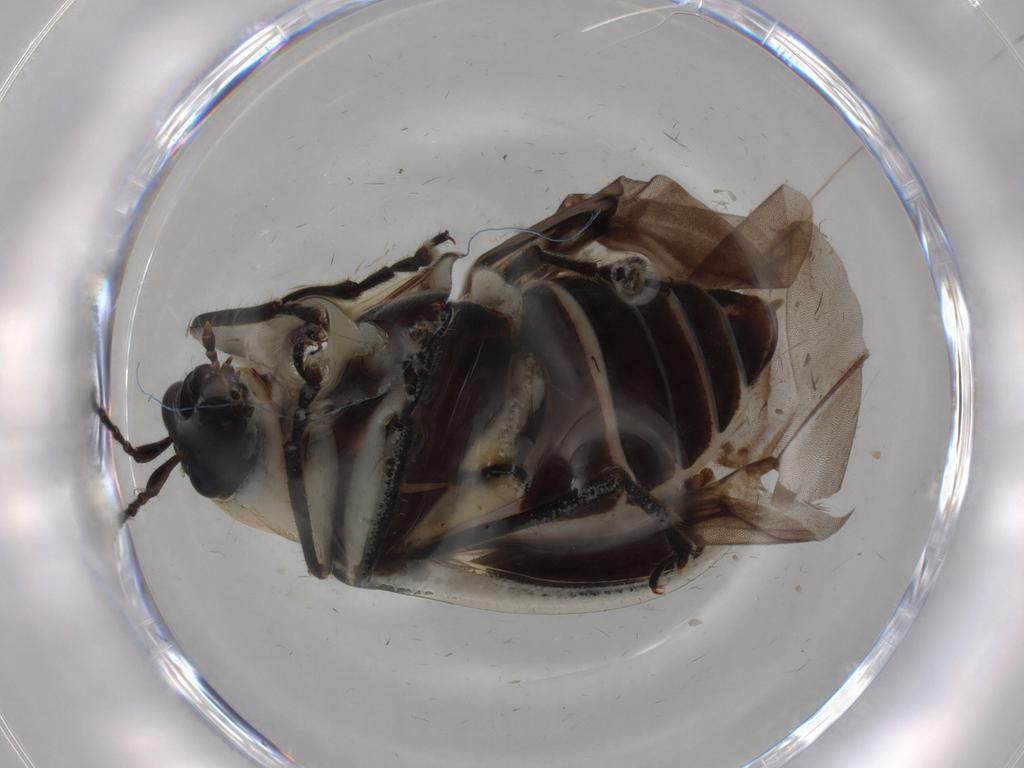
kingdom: Animalia
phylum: Arthropoda
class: Insecta
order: Coleoptera
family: Chrysomelidae
